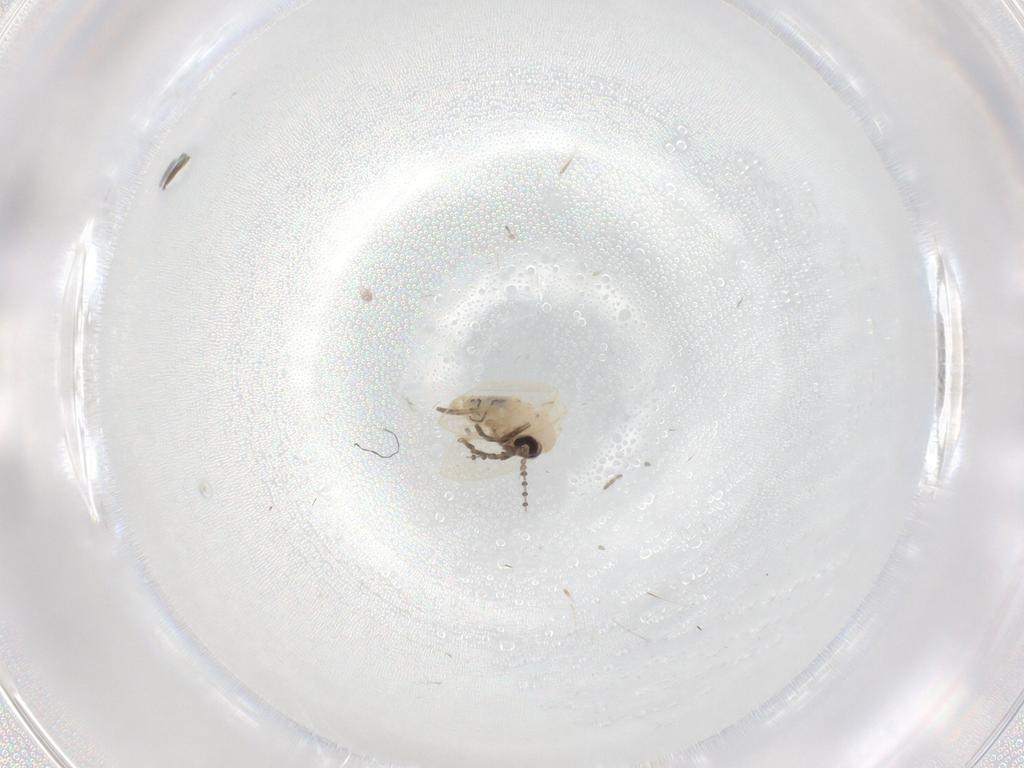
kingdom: Animalia
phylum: Arthropoda
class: Insecta
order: Diptera
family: Psychodidae
